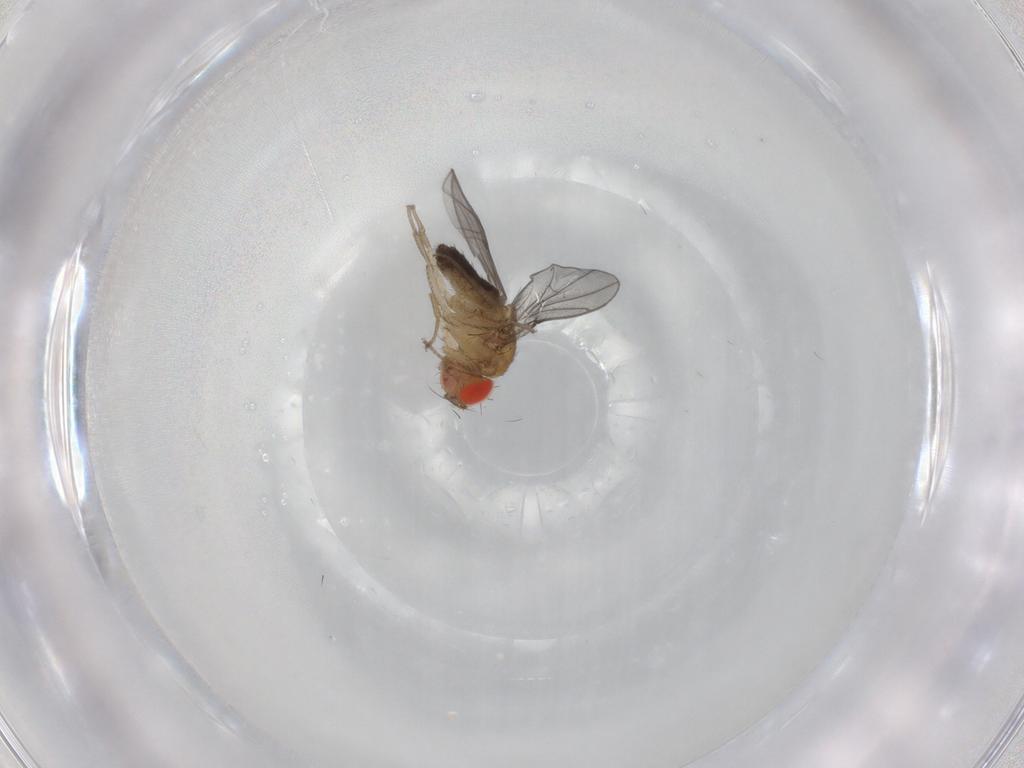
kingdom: Animalia
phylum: Arthropoda
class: Insecta
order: Diptera
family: Drosophilidae
